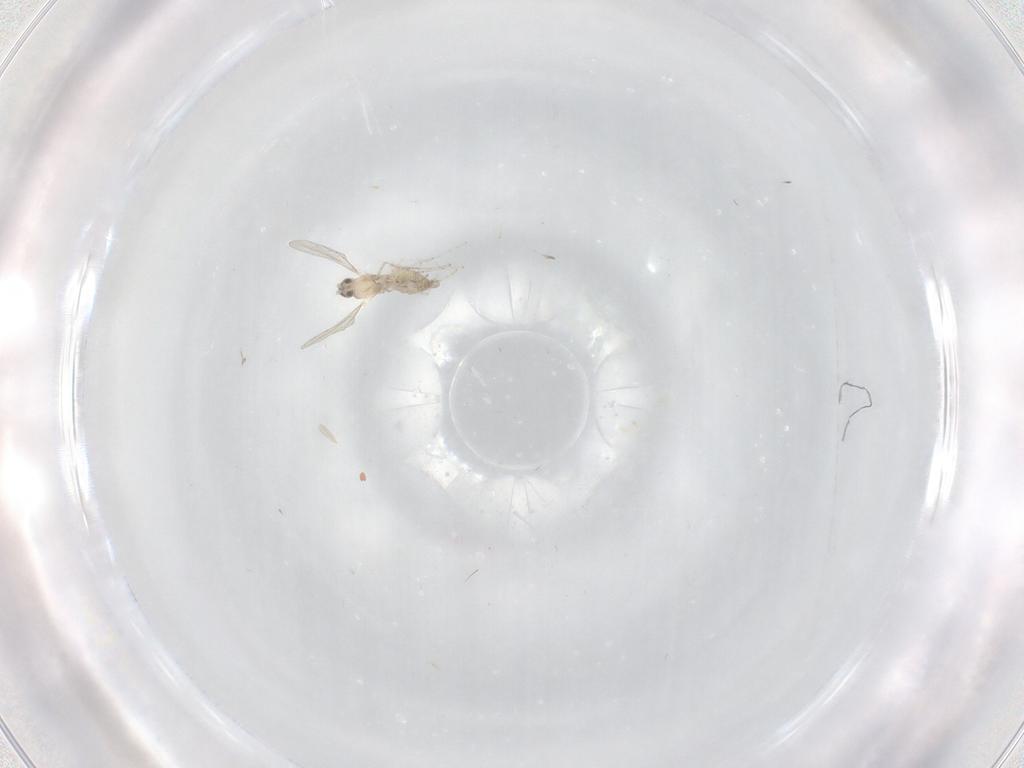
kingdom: Animalia
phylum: Arthropoda
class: Insecta
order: Diptera
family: Cecidomyiidae
